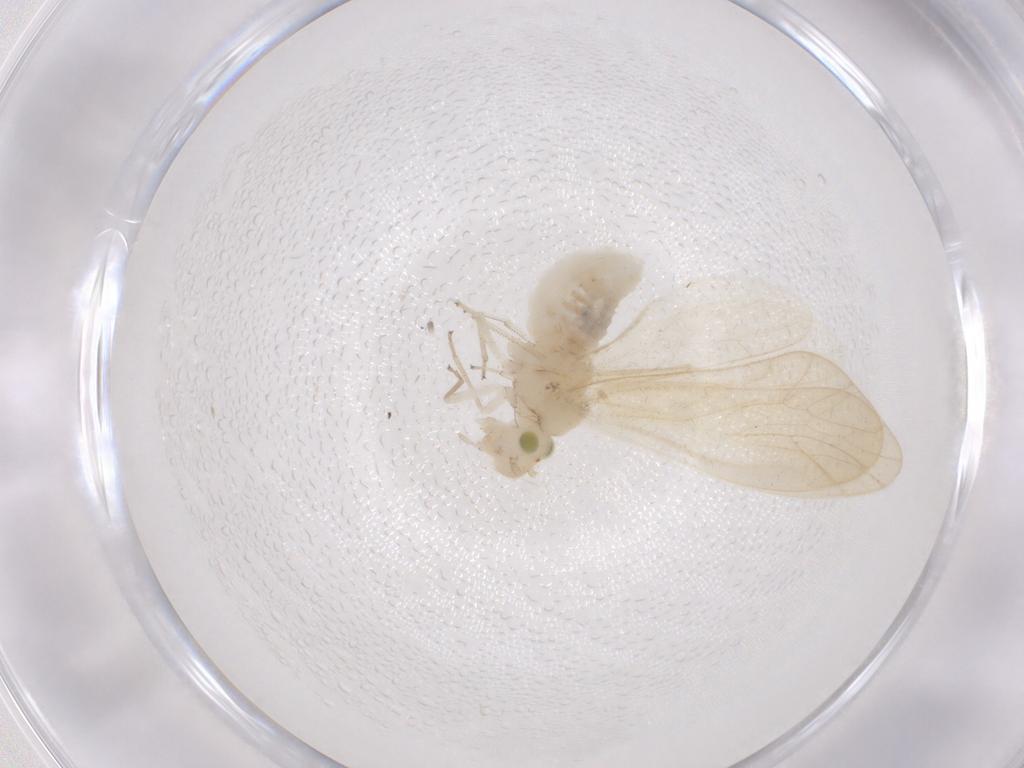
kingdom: Animalia
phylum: Arthropoda
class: Insecta
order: Psocodea
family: Caeciliusidae
